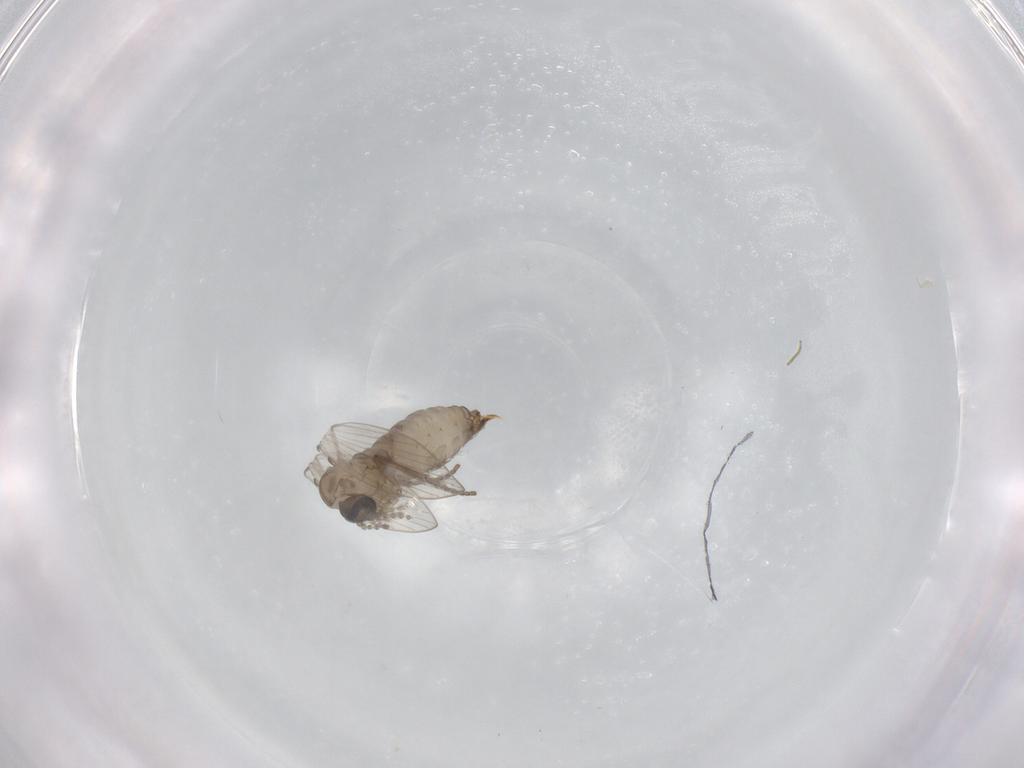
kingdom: Animalia
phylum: Arthropoda
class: Insecta
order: Diptera
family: Psychodidae
